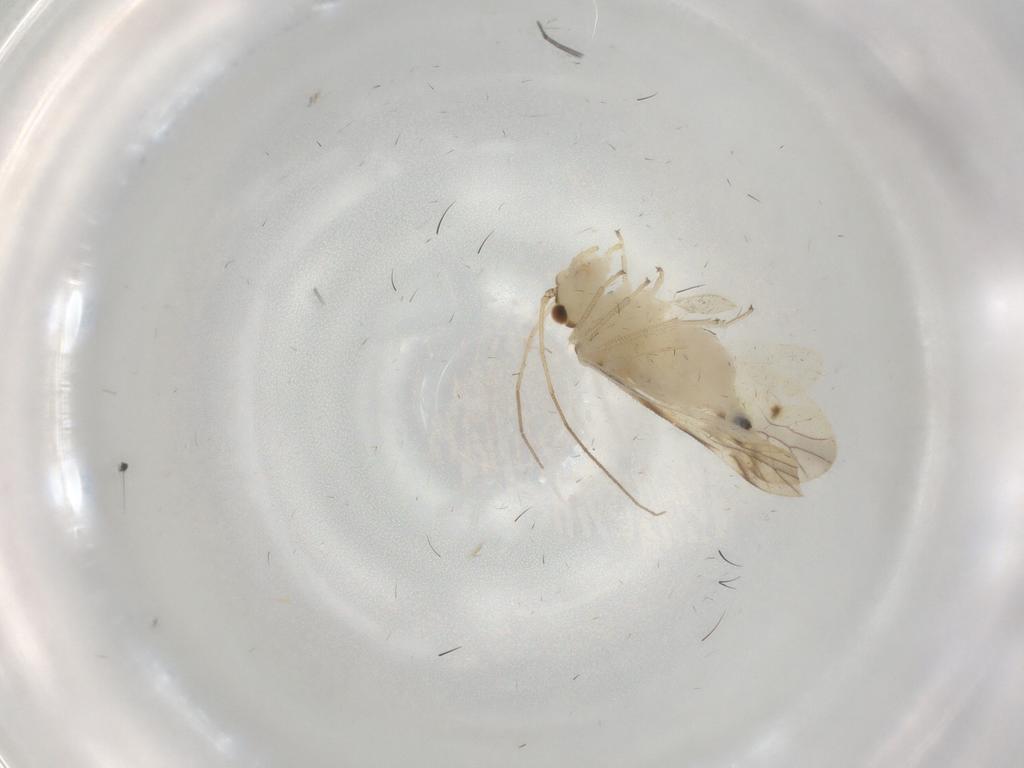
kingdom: Animalia
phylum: Arthropoda
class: Insecta
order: Psocodea
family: Caeciliusidae
